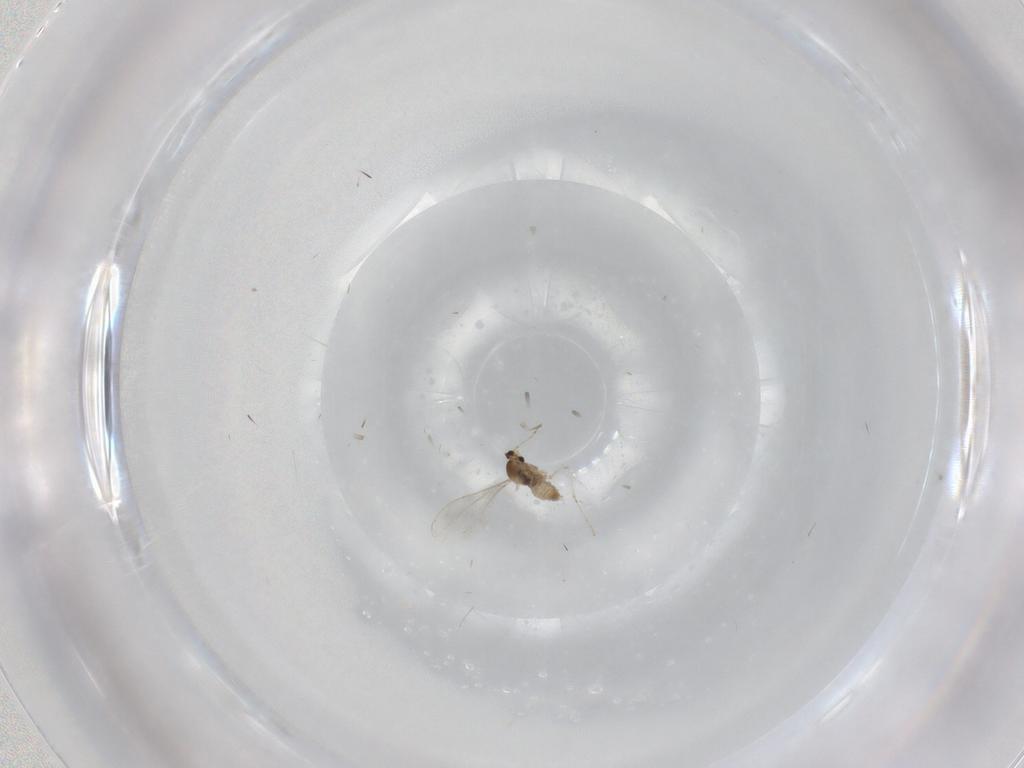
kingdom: Animalia
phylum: Arthropoda
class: Insecta
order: Diptera
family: Cecidomyiidae
